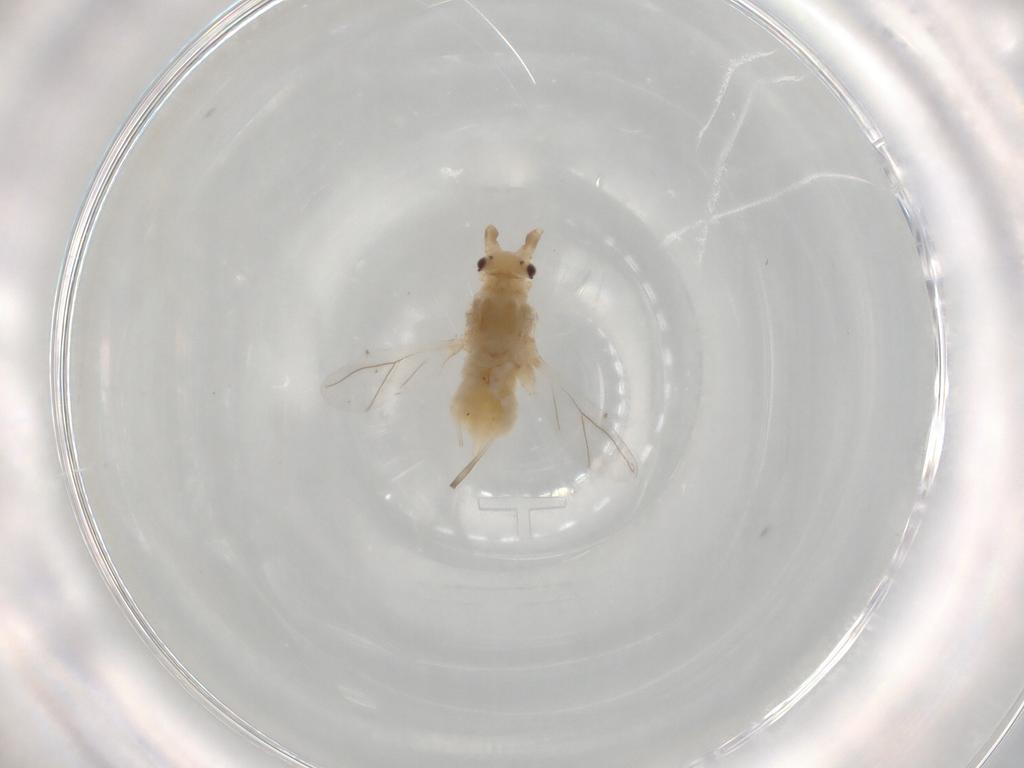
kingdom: Animalia
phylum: Arthropoda
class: Insecta
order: Hemiptera
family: Aphididae
